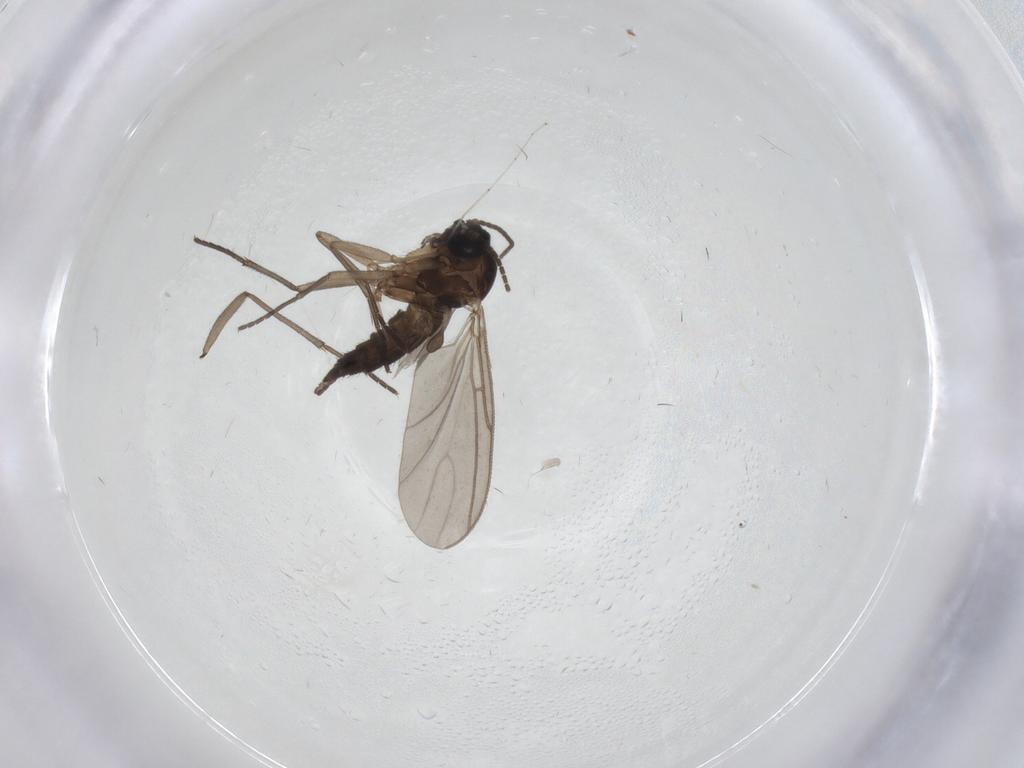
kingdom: Animalia
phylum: Arthropoda
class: Insecta
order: Diptera
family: Sciaridae
